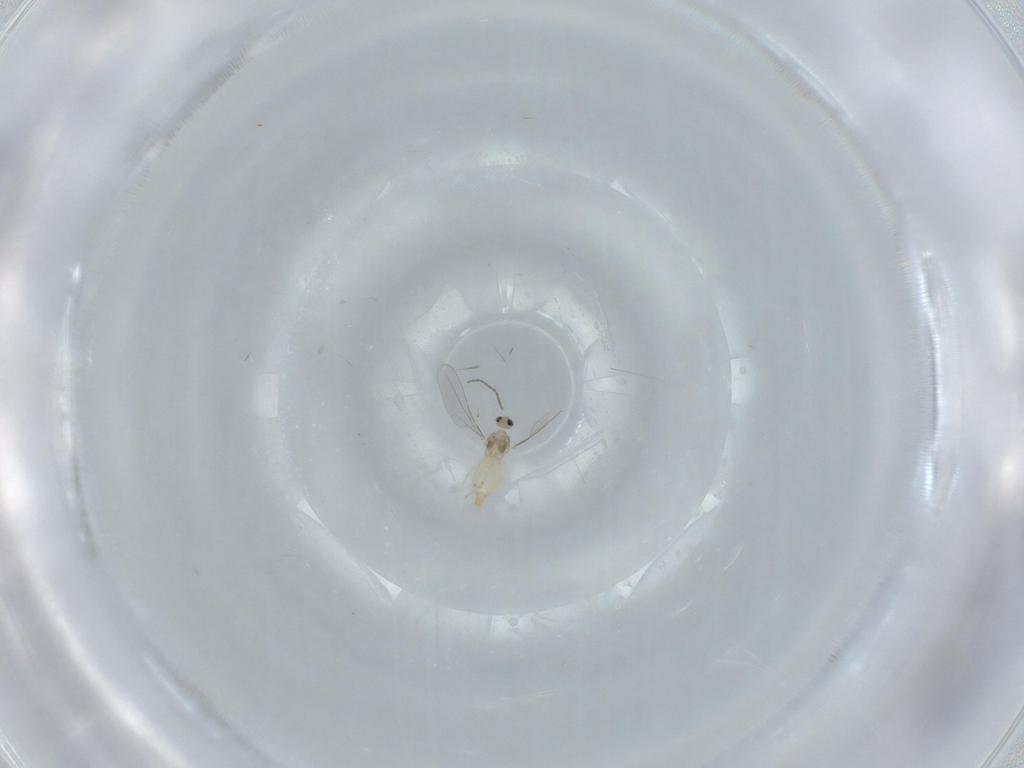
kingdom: Animalia
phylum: Arthropoda
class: Insecta
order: Diptera
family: Cecidomyiidae
